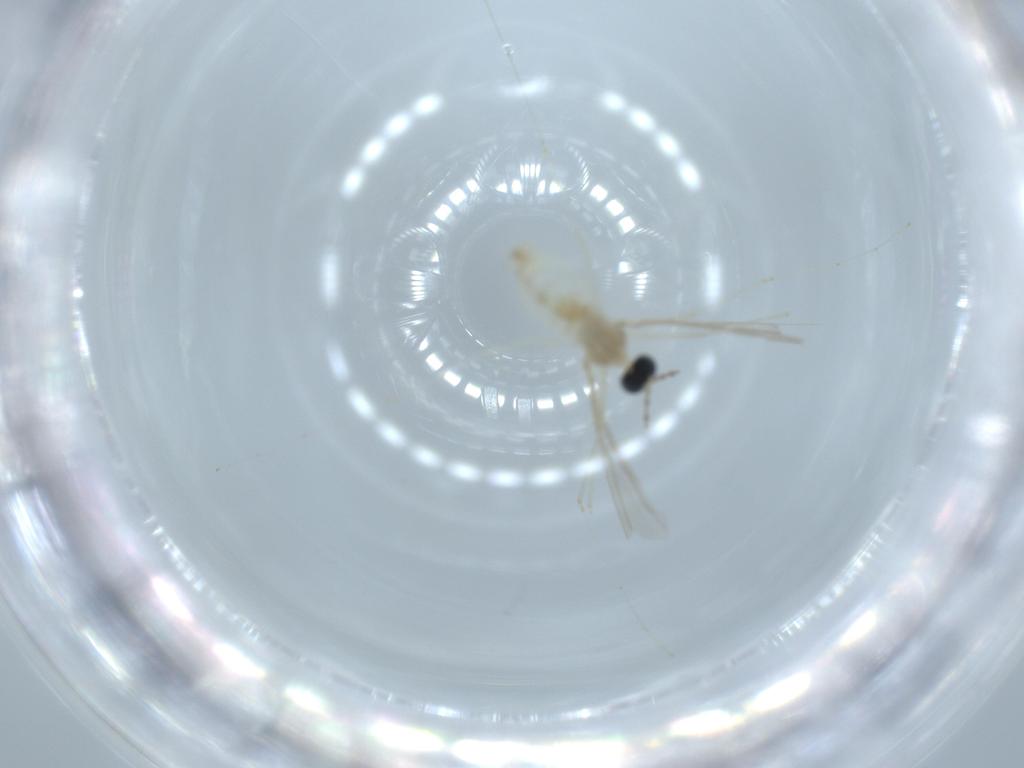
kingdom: Animalia
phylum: Arthropoda
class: Insecta
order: Diptera
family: Cecidomyiidae
